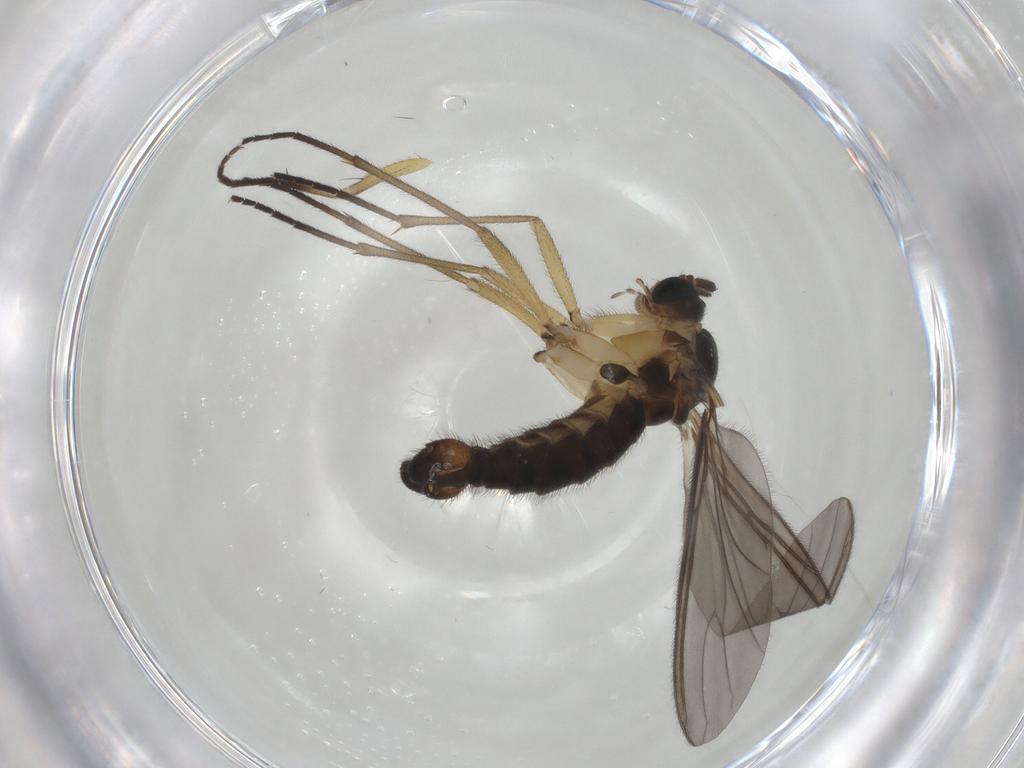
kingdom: Animalia
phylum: Arthropoda
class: Insecta
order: Diptera
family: Sciaridae
